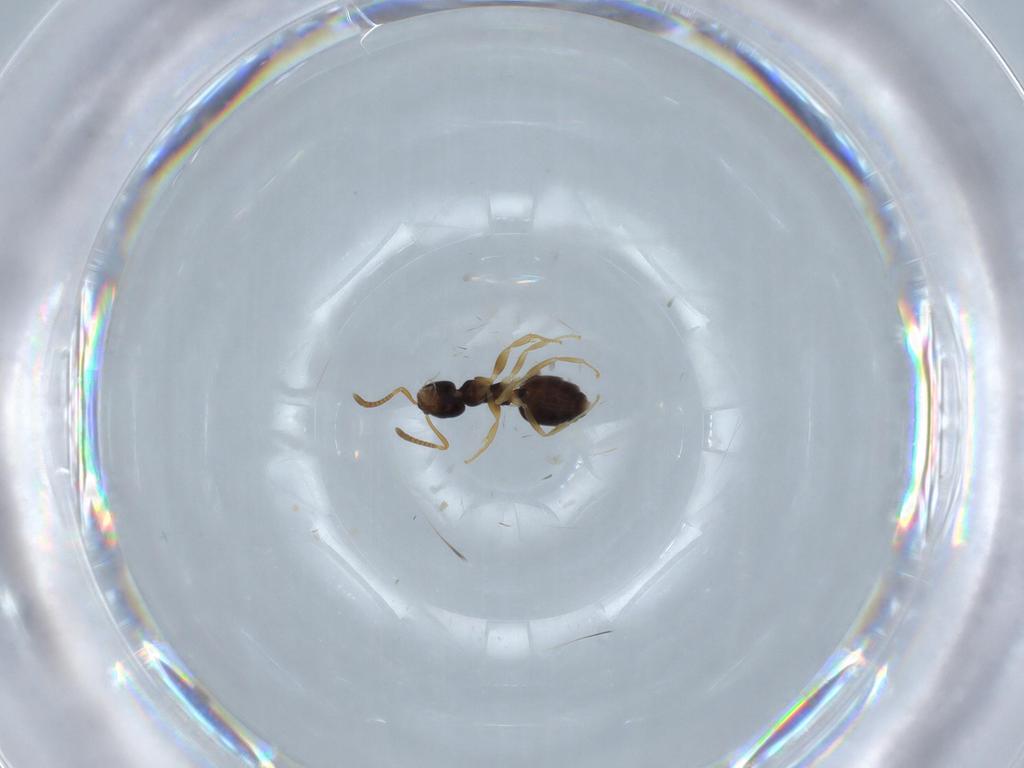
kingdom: Animalia
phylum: Arthropoda
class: Insecta
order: Hymenoptera
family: Formicidae
